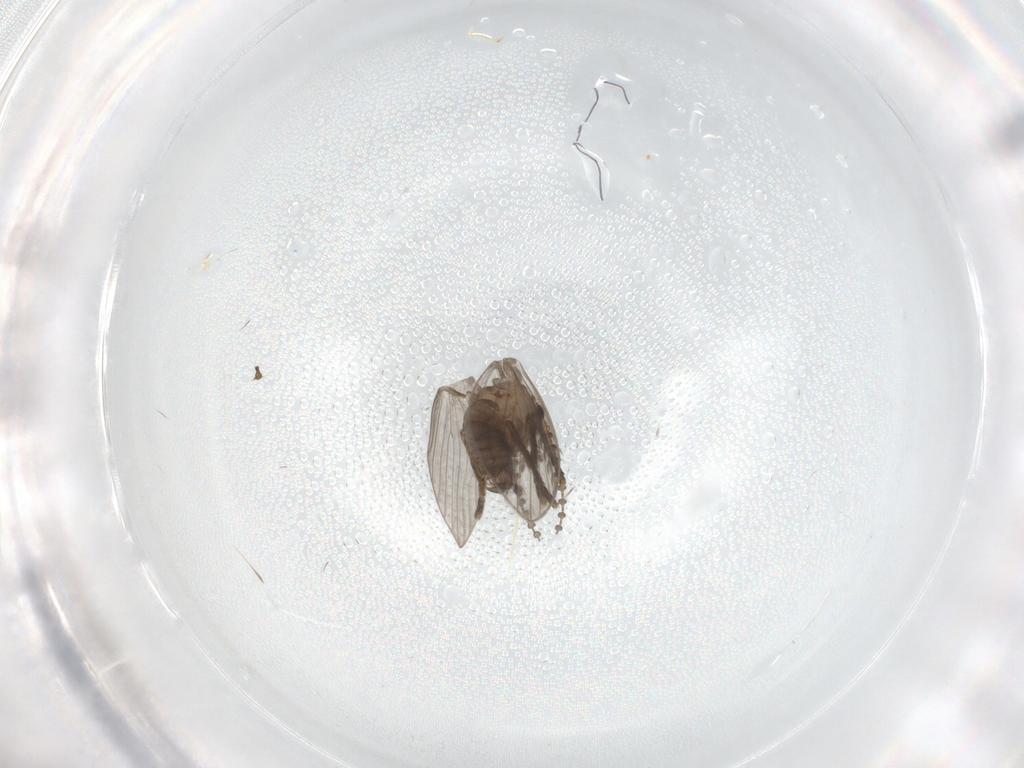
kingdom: Animalia
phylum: Arthropoda
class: Insecta
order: Diptera
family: Psychodidae
